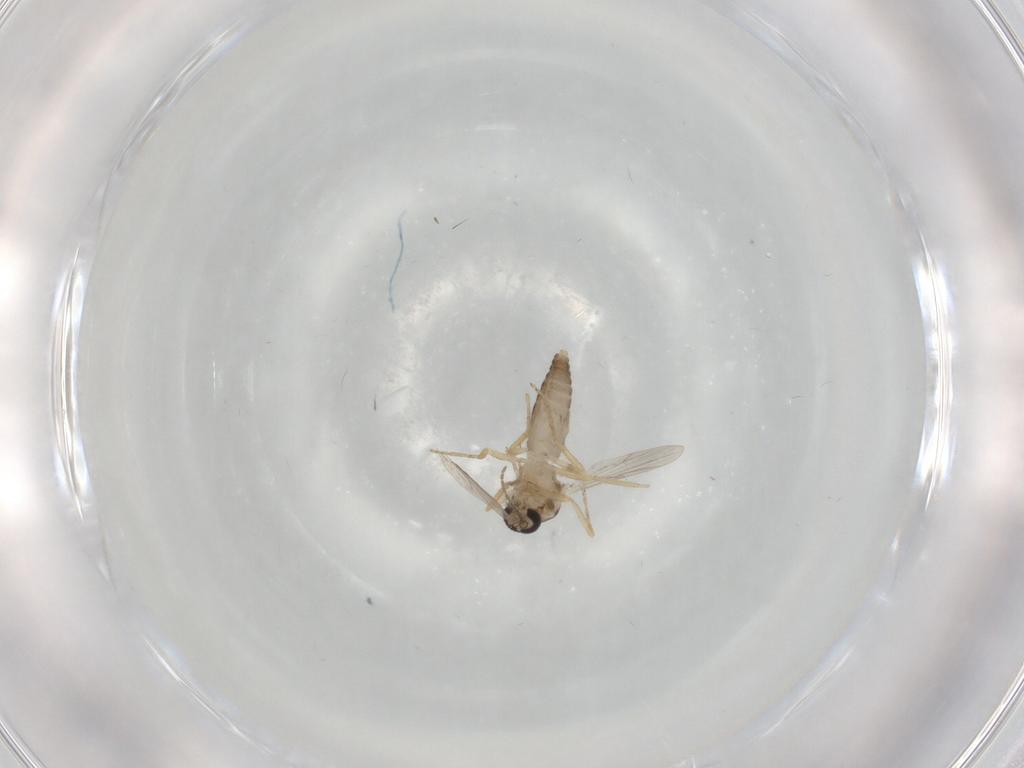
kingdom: Animalia
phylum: Arthropoda
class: Insecta
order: Diptera
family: Ceratopogonidae
